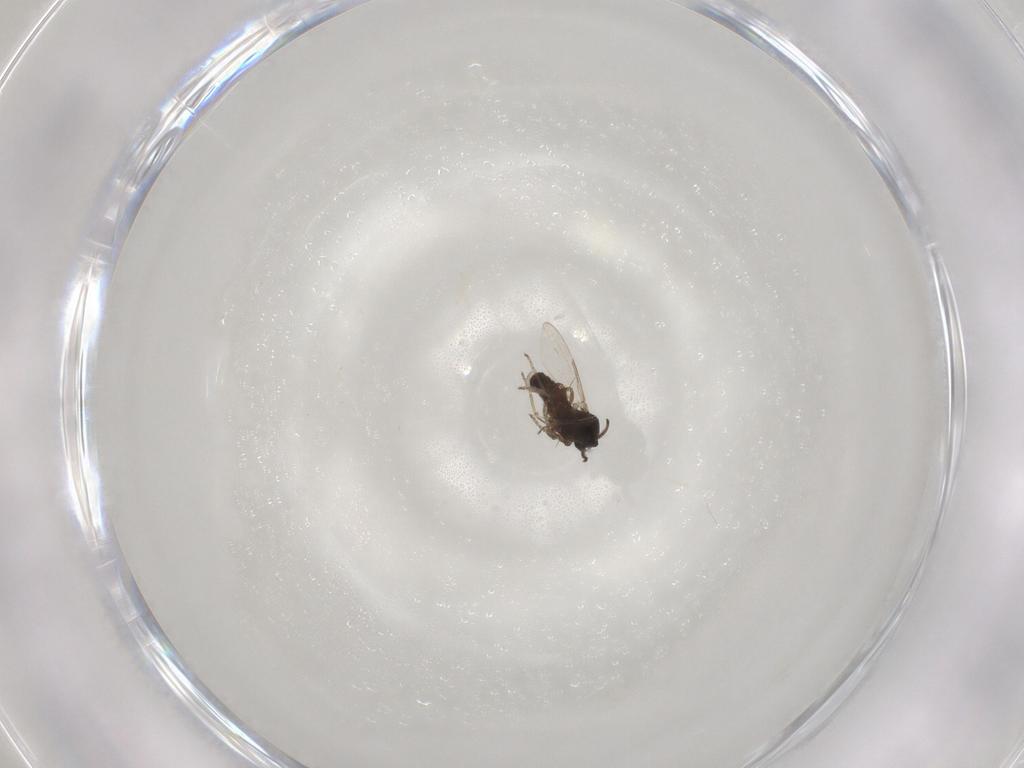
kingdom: Animalia
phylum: Arthropoda
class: Insecta
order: Diptera
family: Ceratopogonidae
